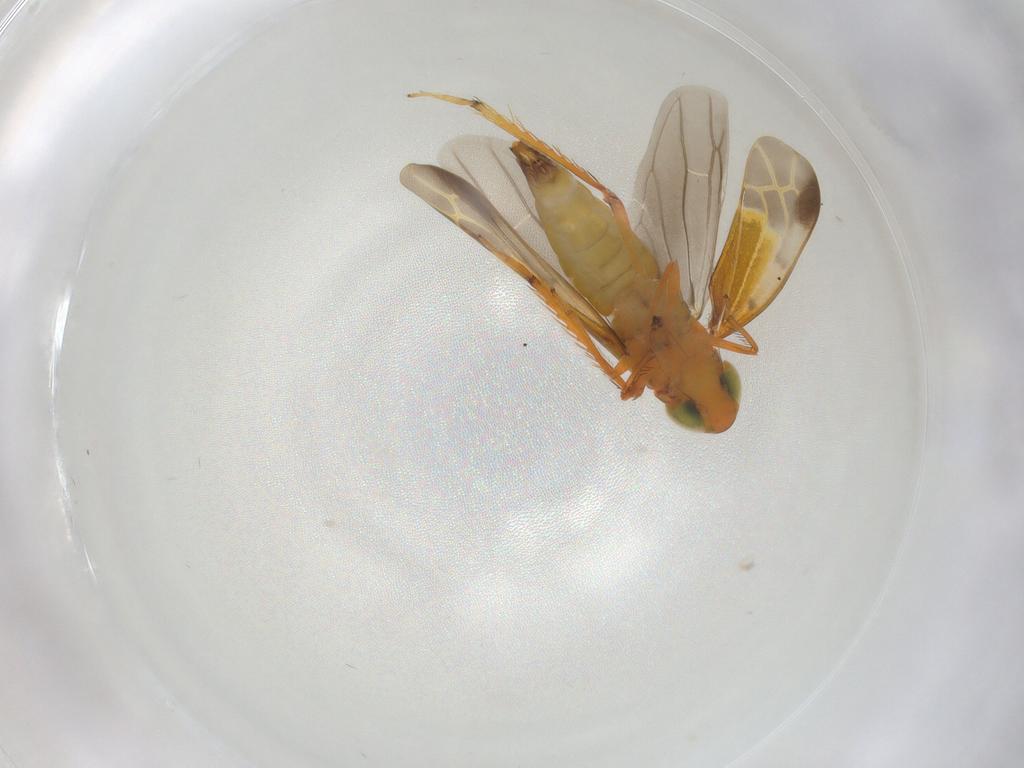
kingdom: Animalia
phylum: Arthropoda
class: Insecta
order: Hemiptera
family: Cicadellidae
